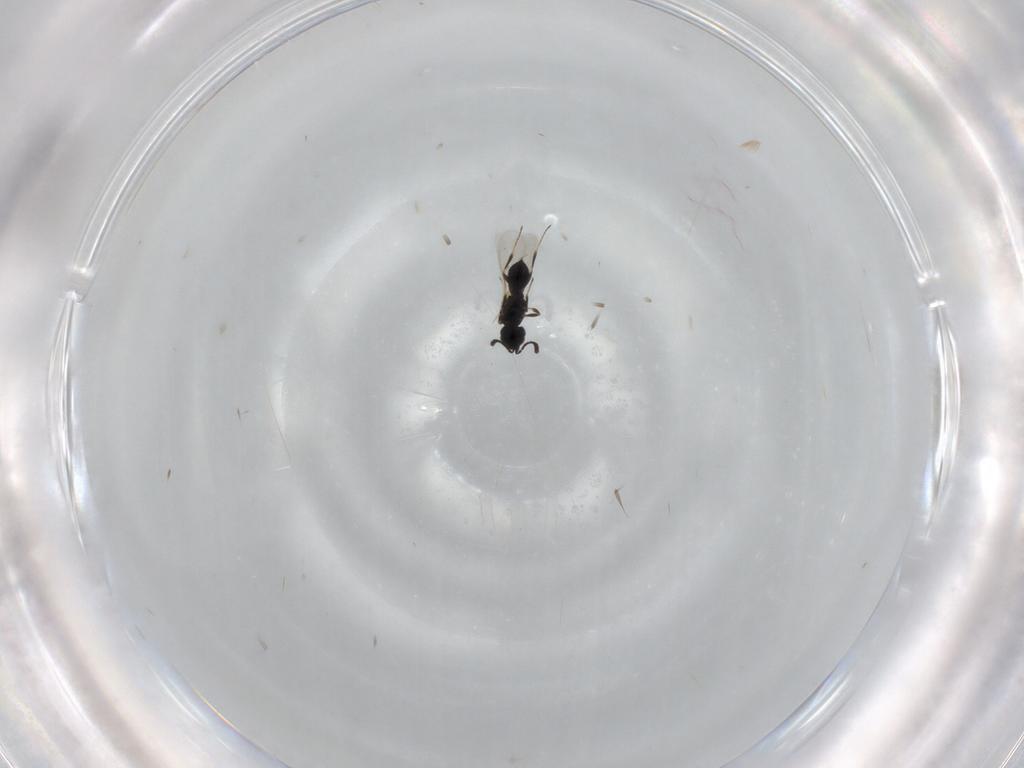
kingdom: Animalia
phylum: Arthropoda
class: Insecta
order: Hymenoptera
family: Scelionidae
